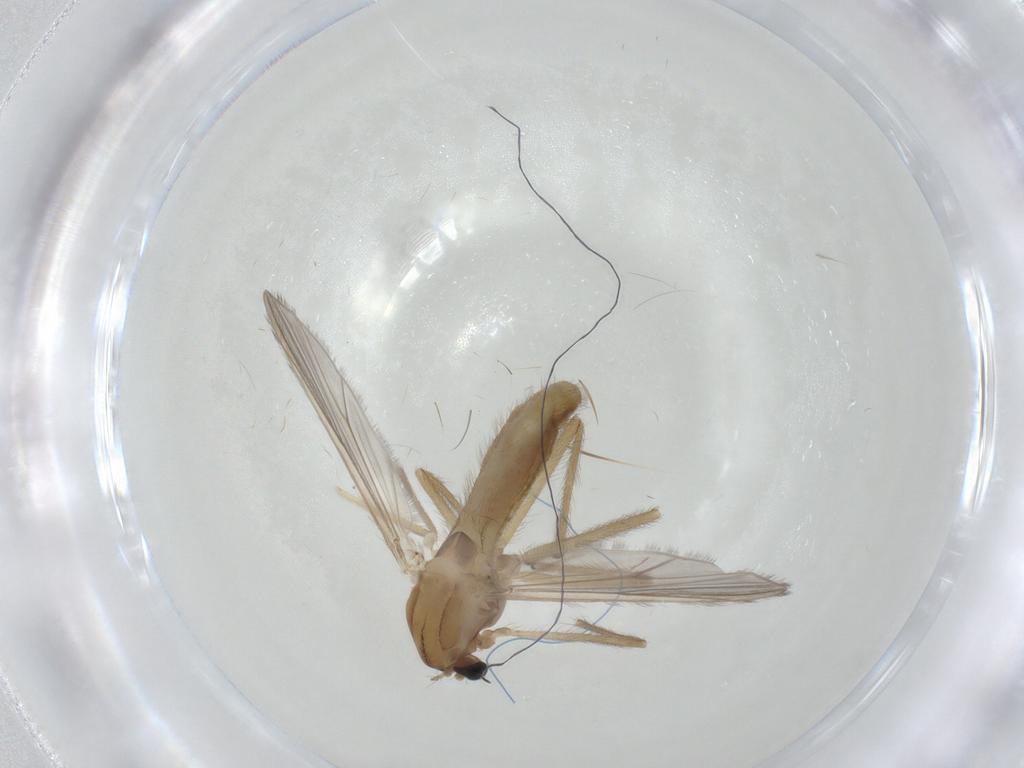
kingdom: Animalia
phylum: Arthropoda
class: Insecta
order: Diptera
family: Chironomidae
